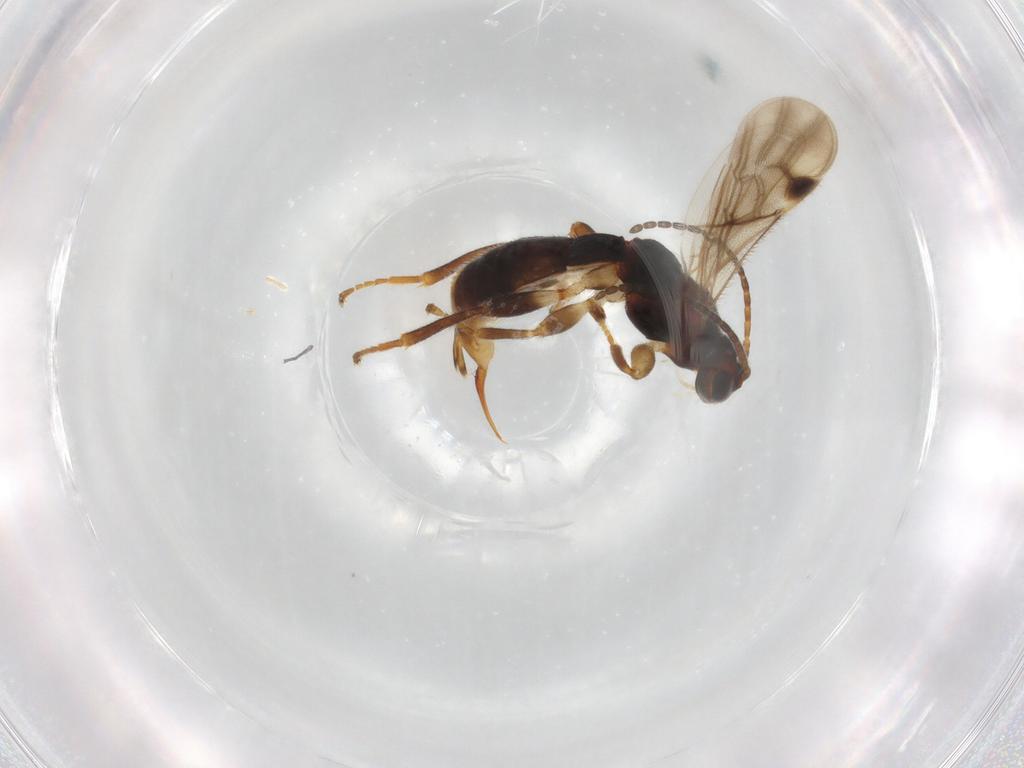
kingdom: Animalia
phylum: Arthropoda
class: Insecta
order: Hymenoptera
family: Braconidae
